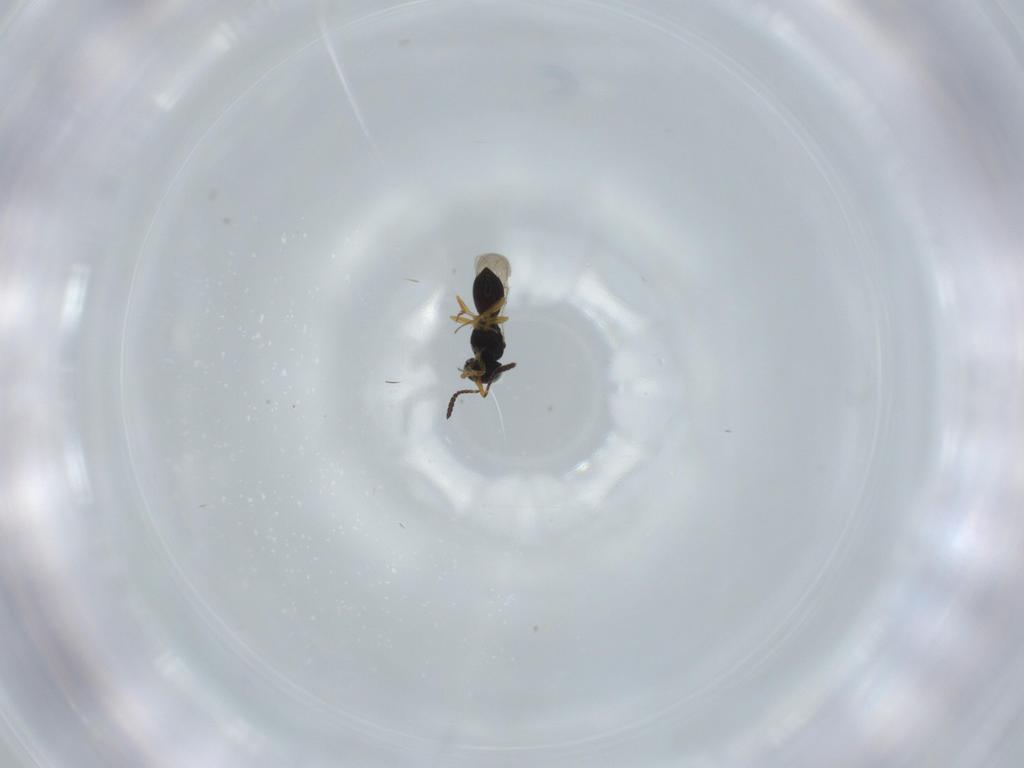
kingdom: Animalia
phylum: Arthropoda
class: Insecta
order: Hymenoptera
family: Scelionidae
